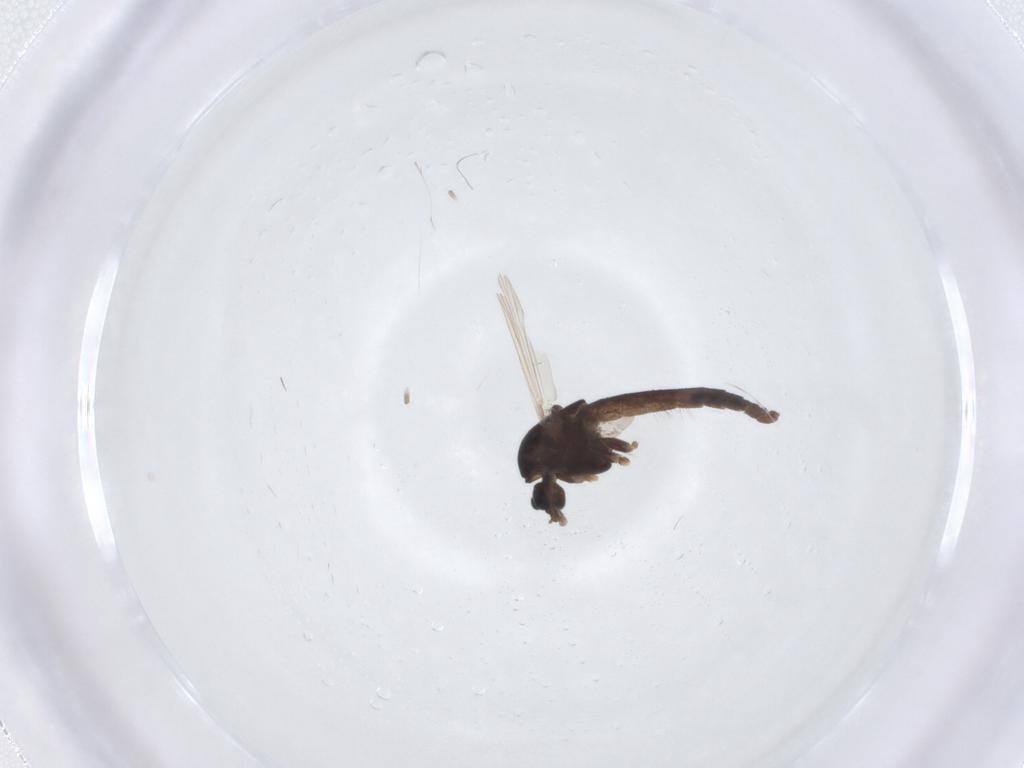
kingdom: Animalia
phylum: Arthropoda
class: Insecta
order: Diptera
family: Chironomidae
